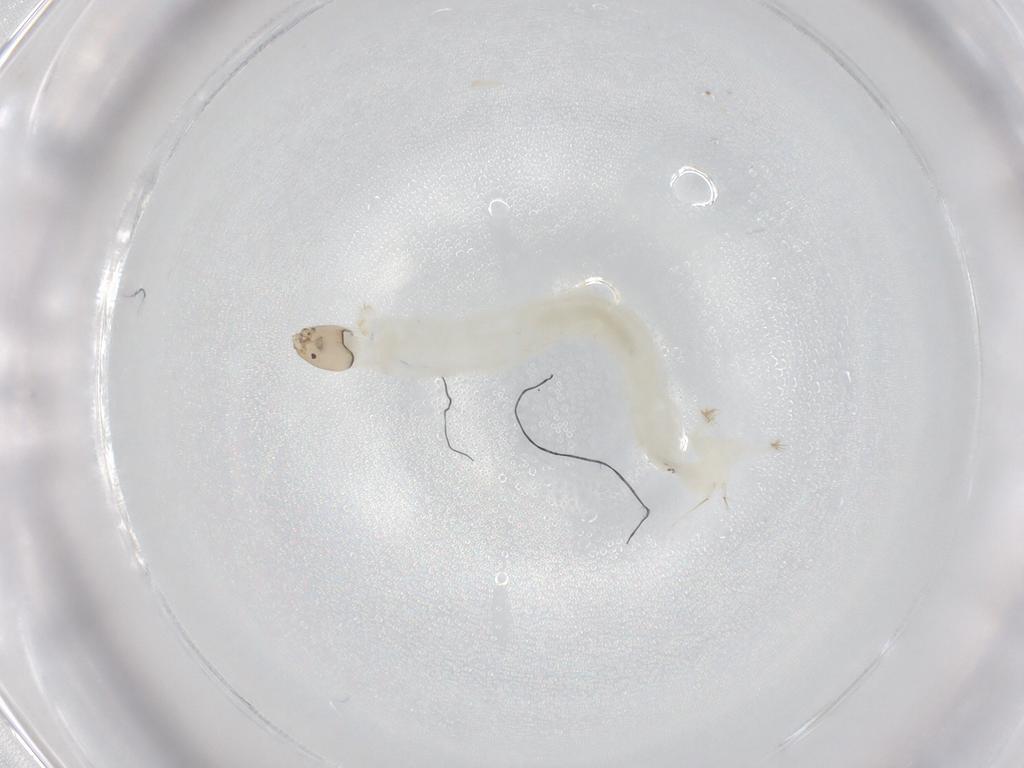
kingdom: Animalia
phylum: Arthropoda
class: Insecta
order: Diptera
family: Chironomidae
